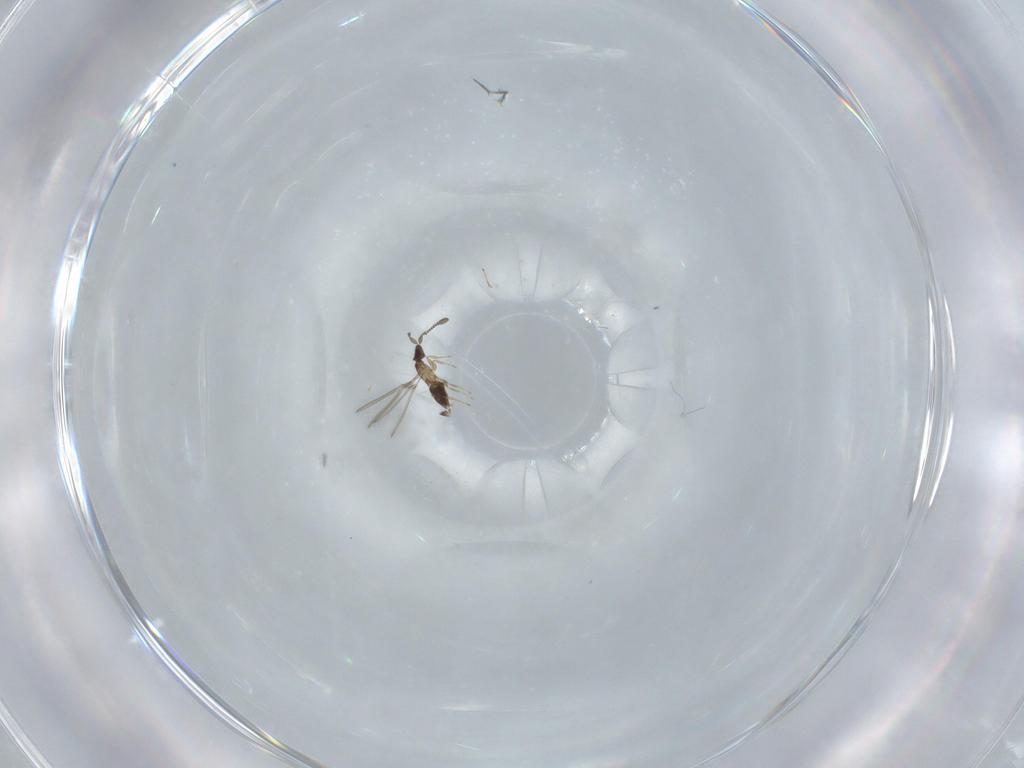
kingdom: Animalia
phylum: Arthropoda
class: Insecta
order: Hymenoptera
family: Mymaridae
